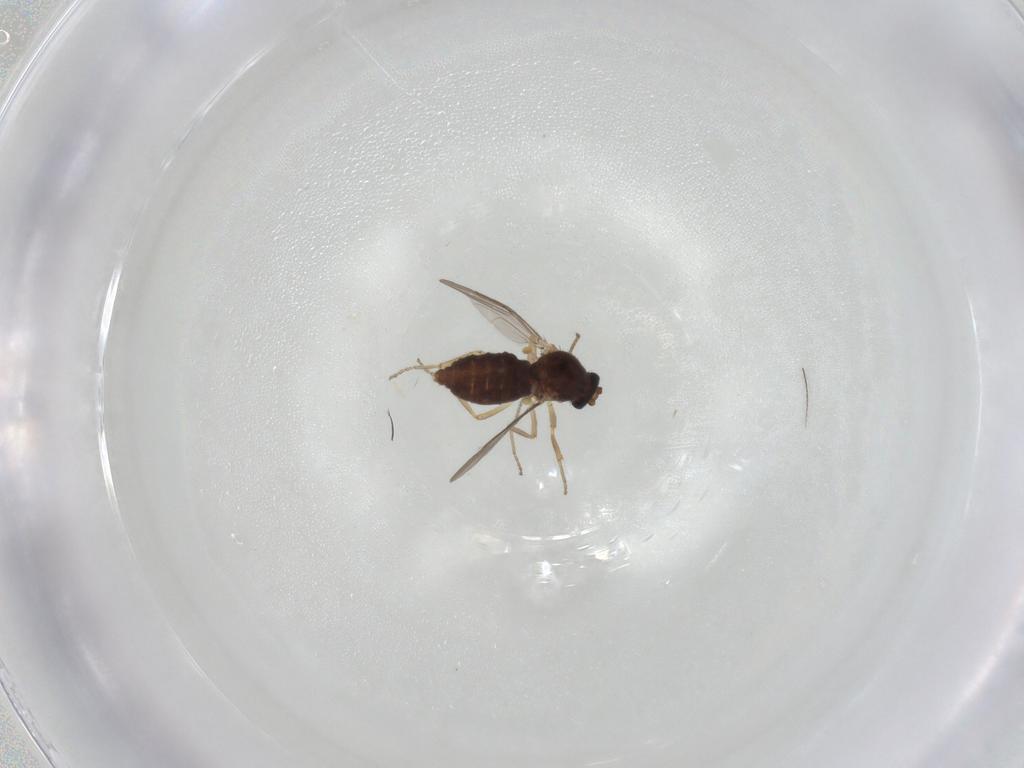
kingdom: Animalia
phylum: Arthropoda
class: Insecta
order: Diptera
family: Ceratopogonidae
